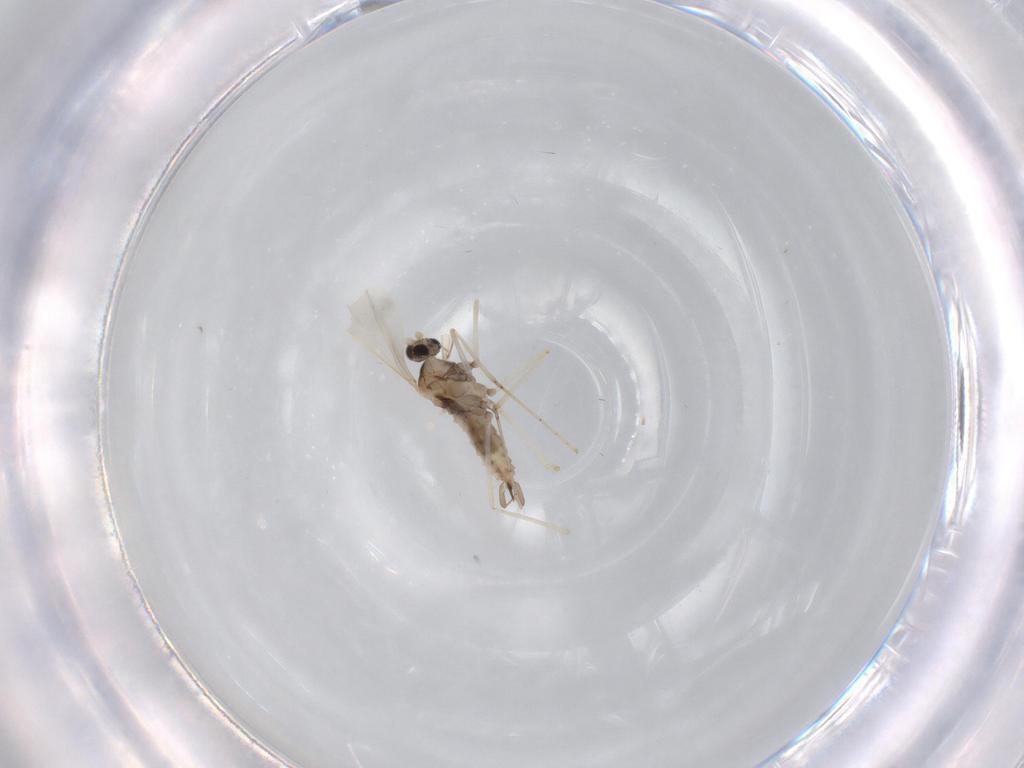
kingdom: Animalia
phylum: Arthropoda
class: Insecta
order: Diptera
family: Cecidomyiidae
